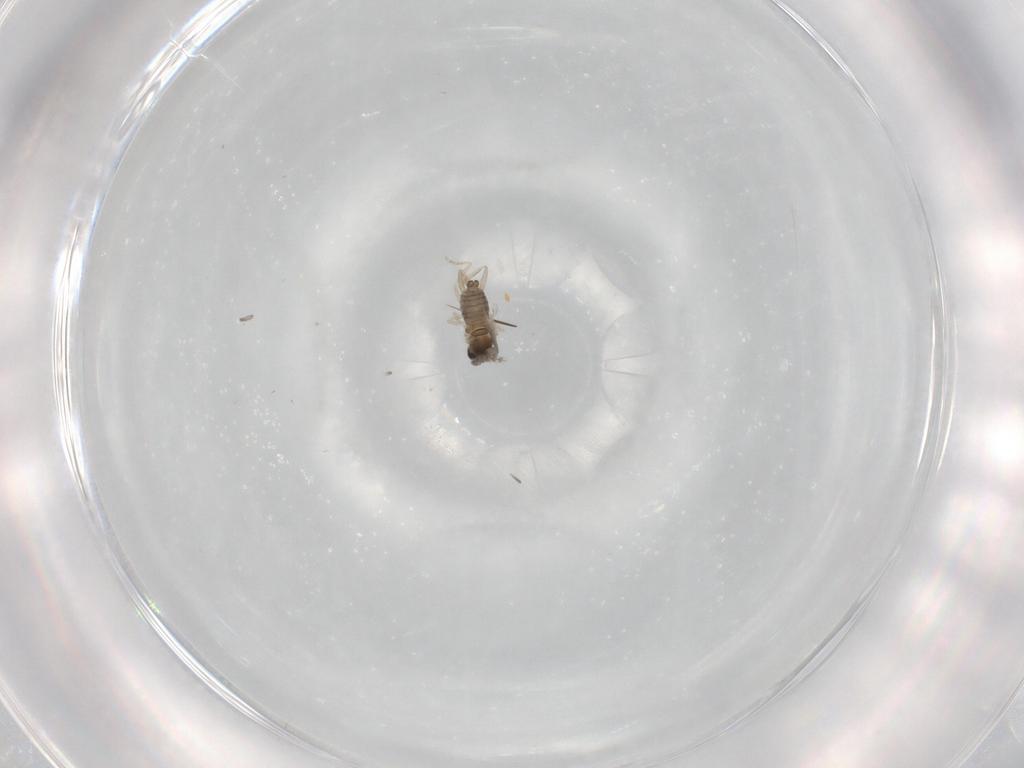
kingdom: Animalia
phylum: Arthropoda
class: Insecta
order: Diptera
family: Cecidomyiidae
